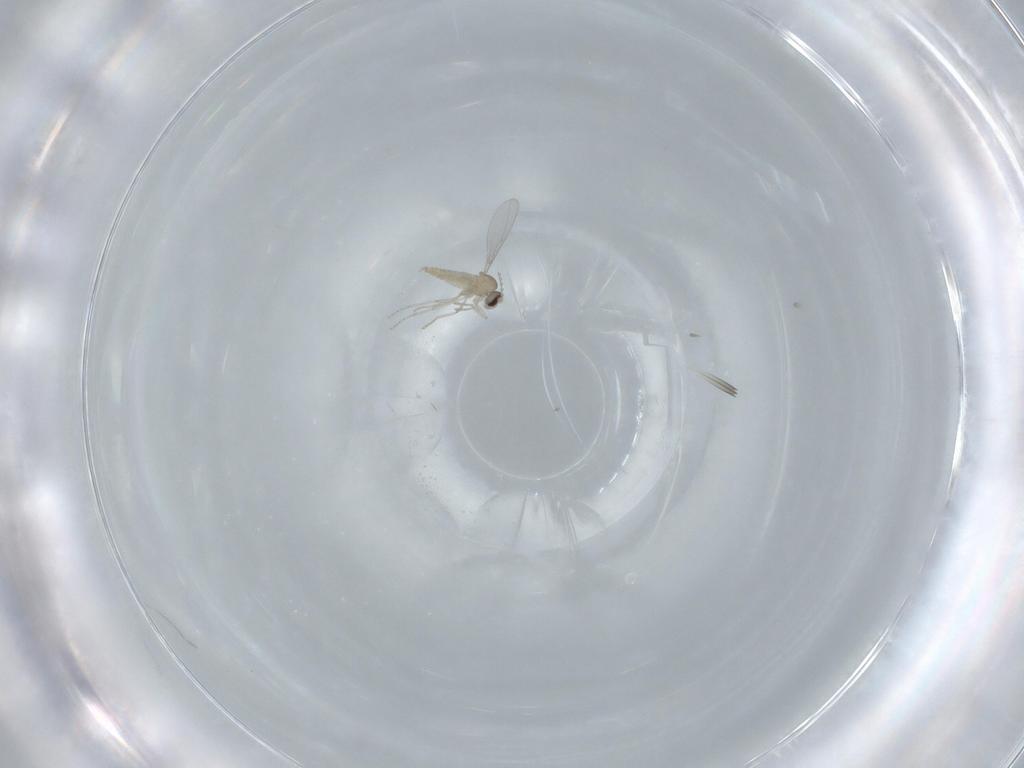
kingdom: Animalia
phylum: Arthropoda
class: Insecta
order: Diptera
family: Cecidomyiidae
